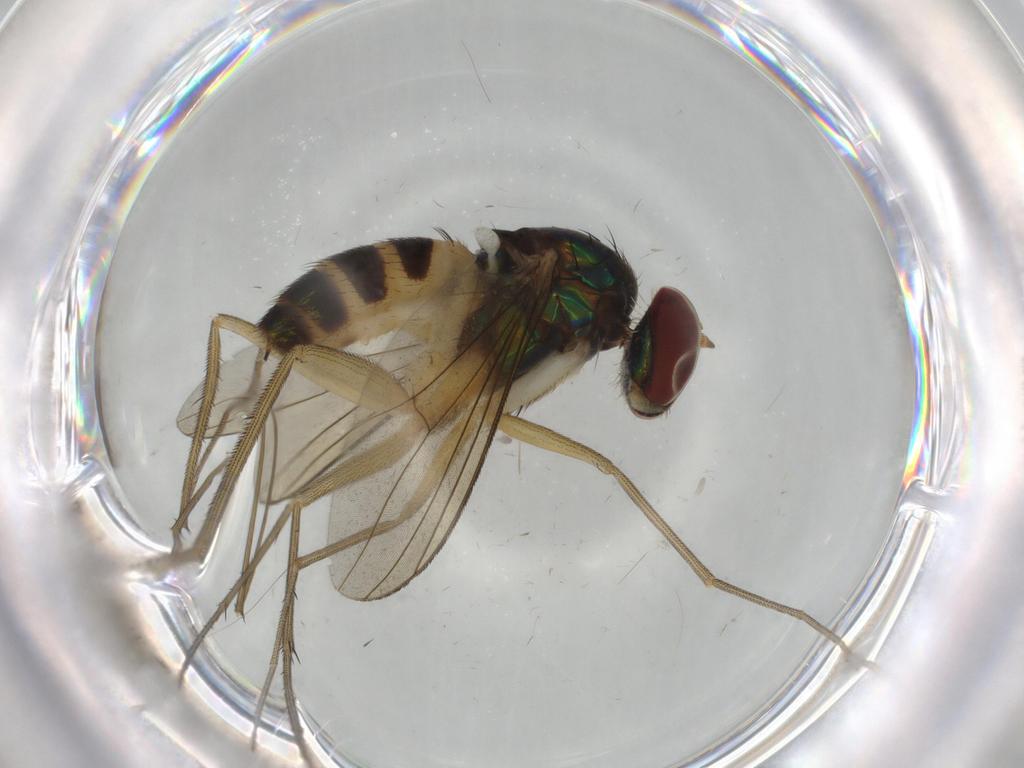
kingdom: Animalia
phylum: Arthropoda
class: Insecta
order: Diptera
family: Dolichopodidae
